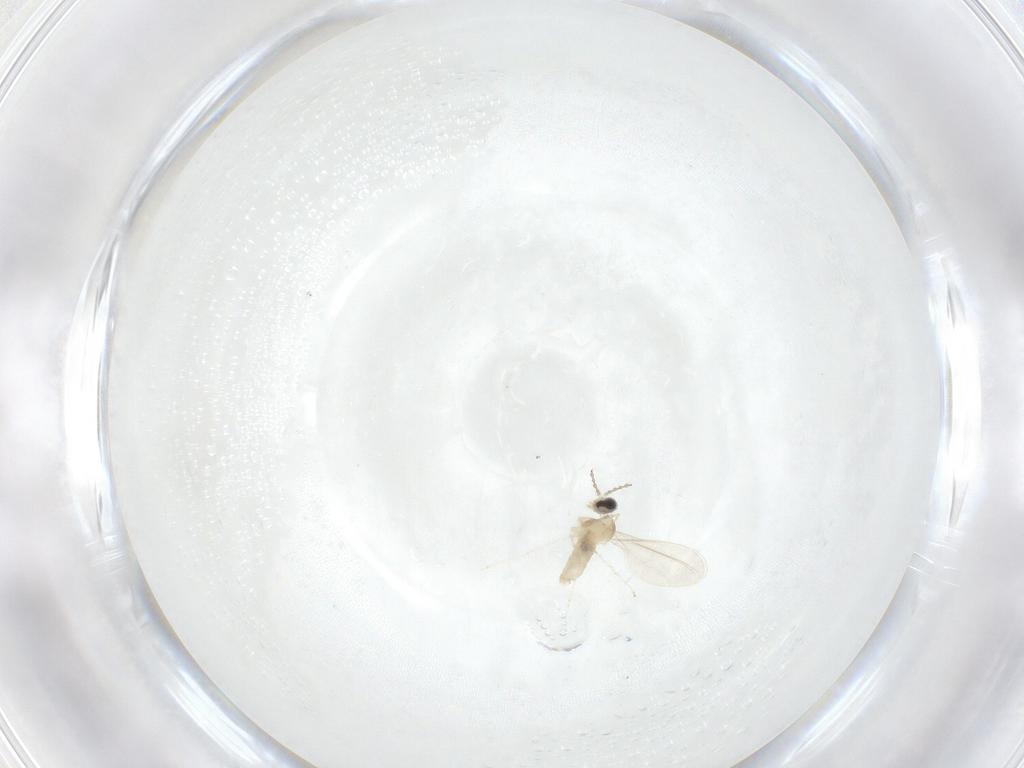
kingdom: Animalia
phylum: Arthropoda
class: Insecta
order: Diptera
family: Cecidomyiidae
